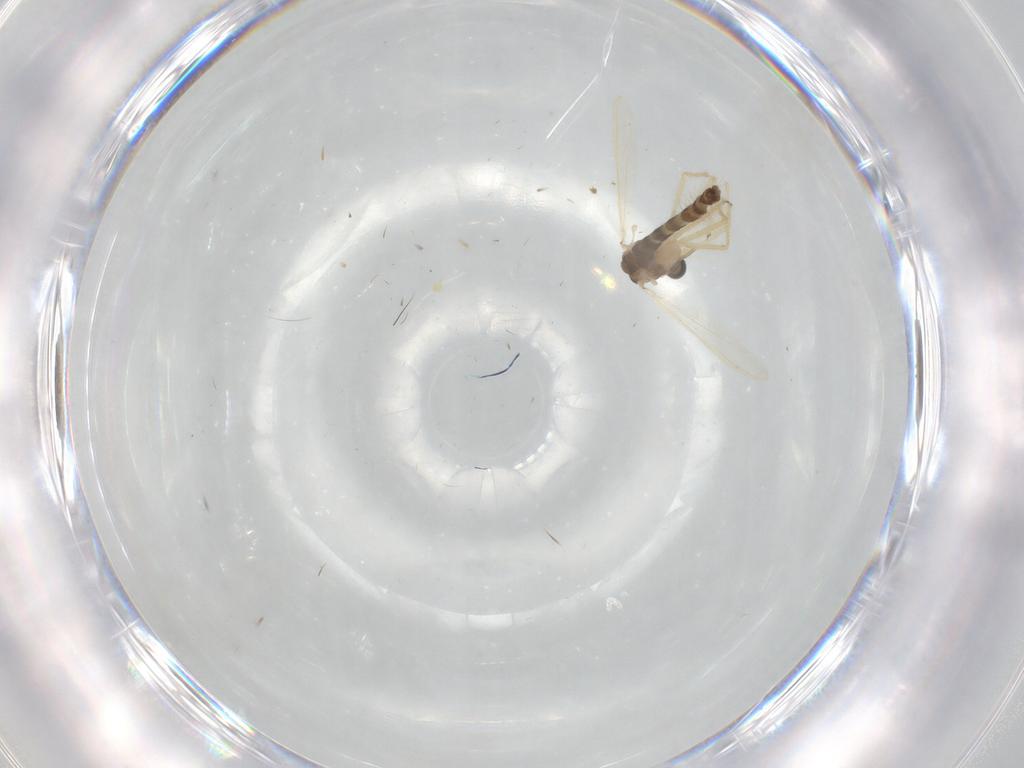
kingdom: Animalia
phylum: Arthropoda
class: Insecta
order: Diptera
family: Chironomidae
